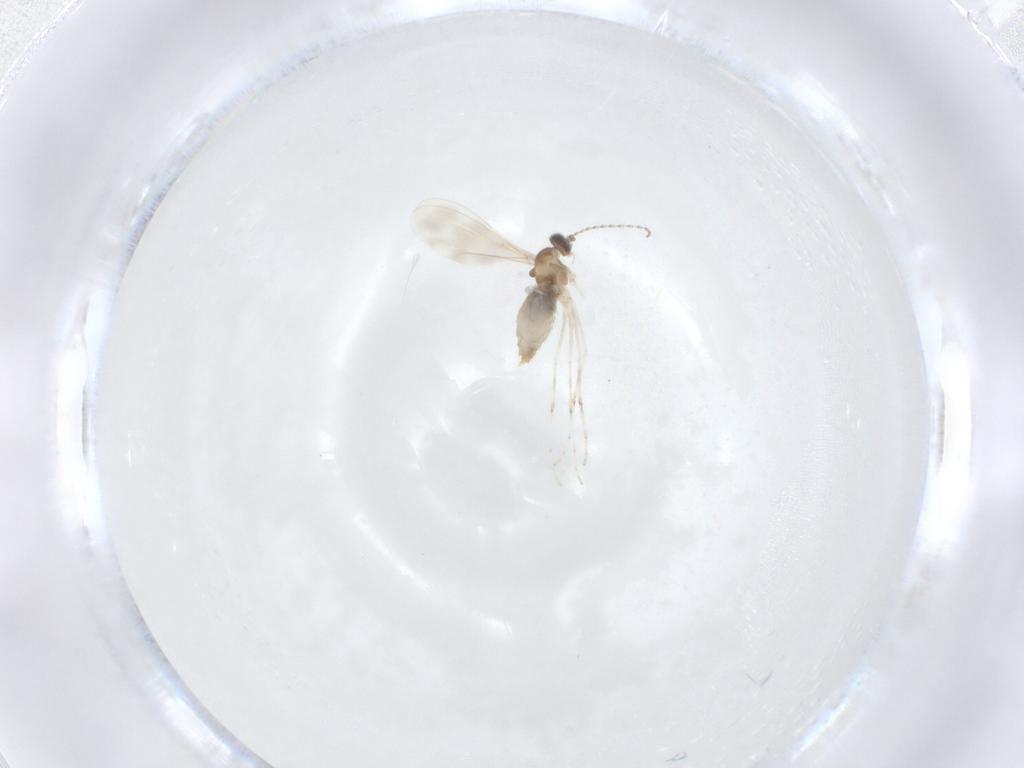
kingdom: Animalia
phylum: Arthropoda
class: Insecta
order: Diptera
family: Cecidomyiidae
